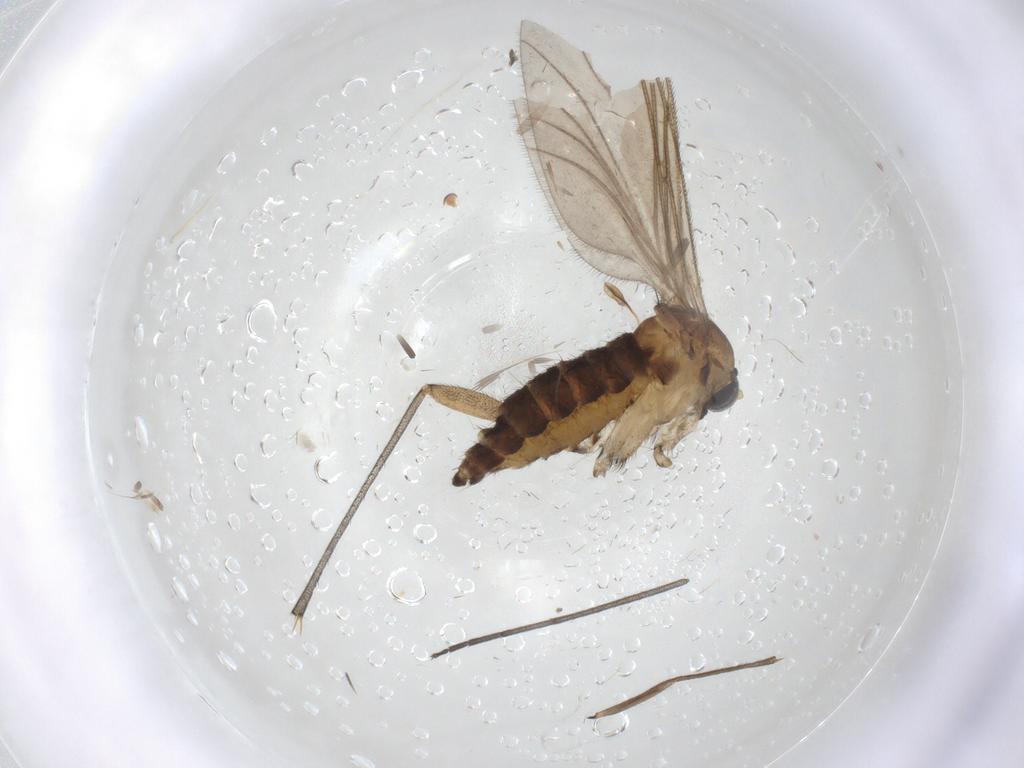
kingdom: Animalia
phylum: Arthropoda
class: Insecta
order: Diptera
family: Sciaridae
